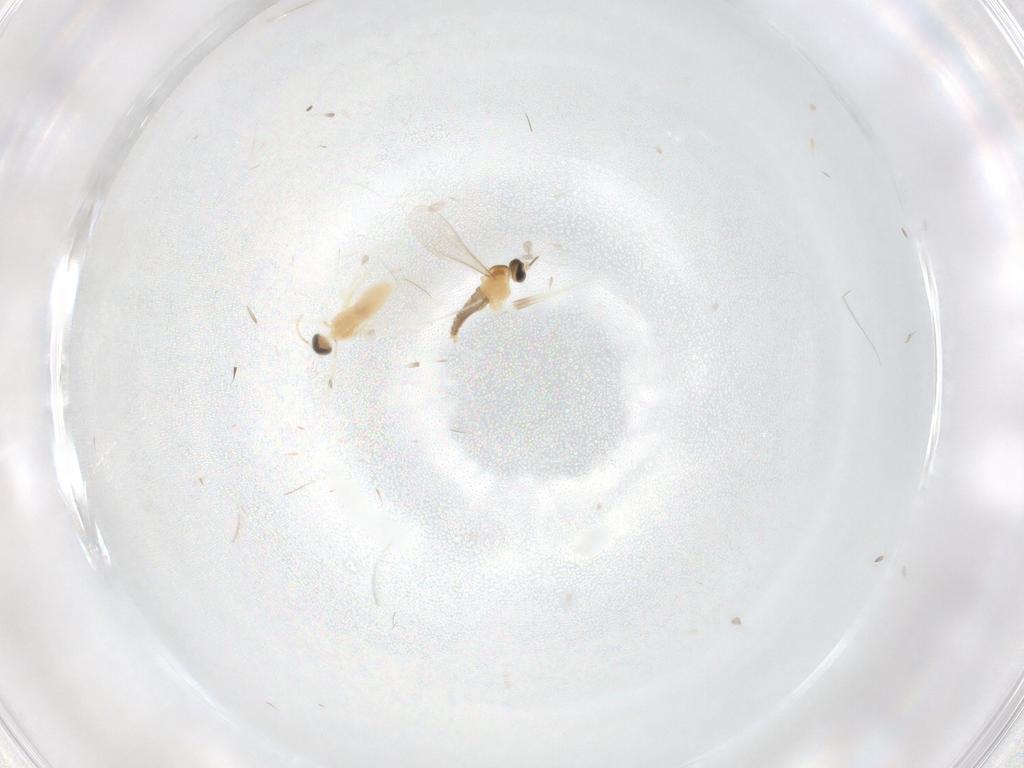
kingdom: Animalia
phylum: Arthropoda
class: Insecta
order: Diptera
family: Cecidomyiidae
